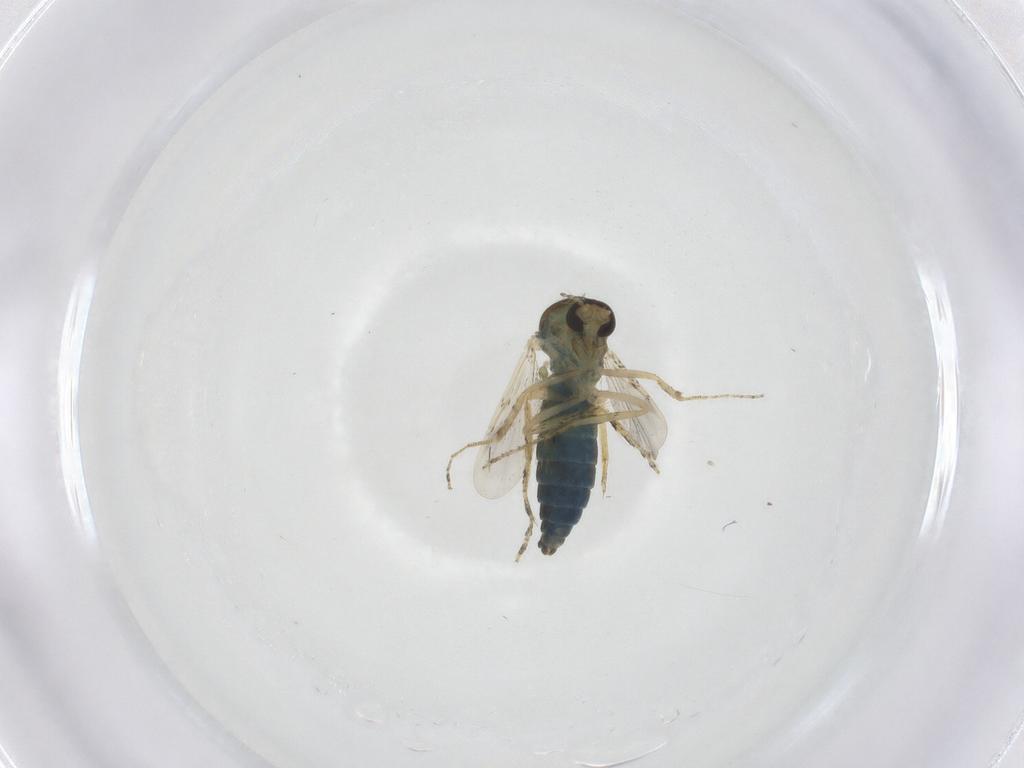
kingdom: Animalia
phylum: Arthropoda
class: Insecta
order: Diptera
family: Ceratopogonidae
